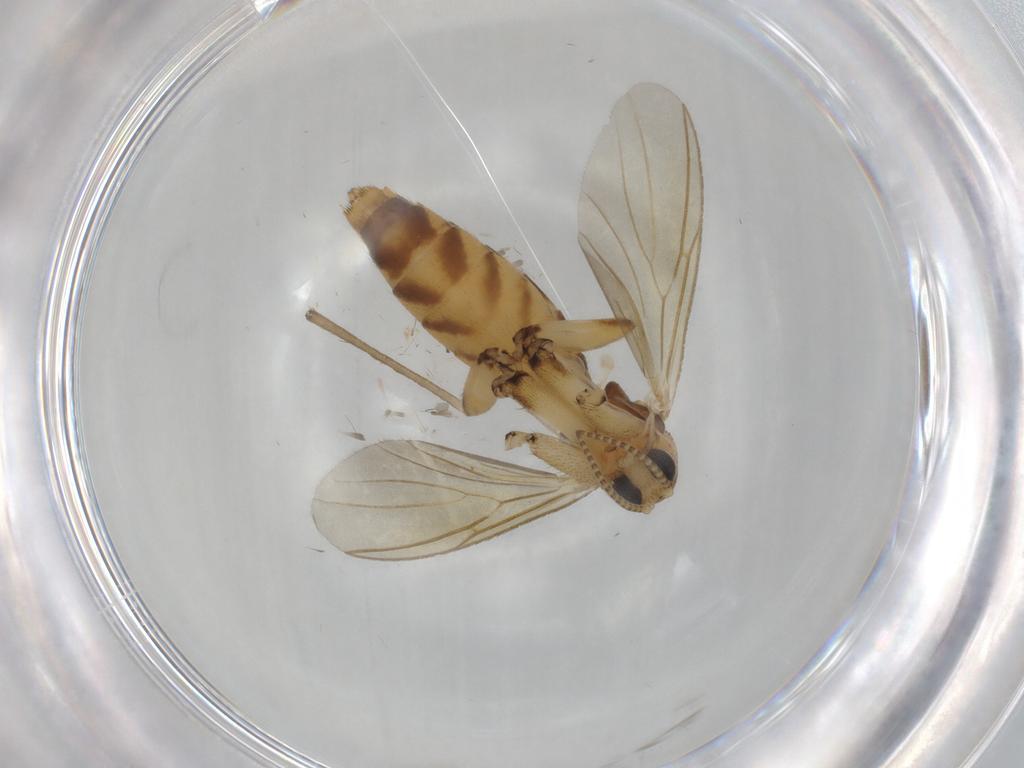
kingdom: Animalia
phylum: Arthropoda
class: Insecta
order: Diptera
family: Mycetophilidae
